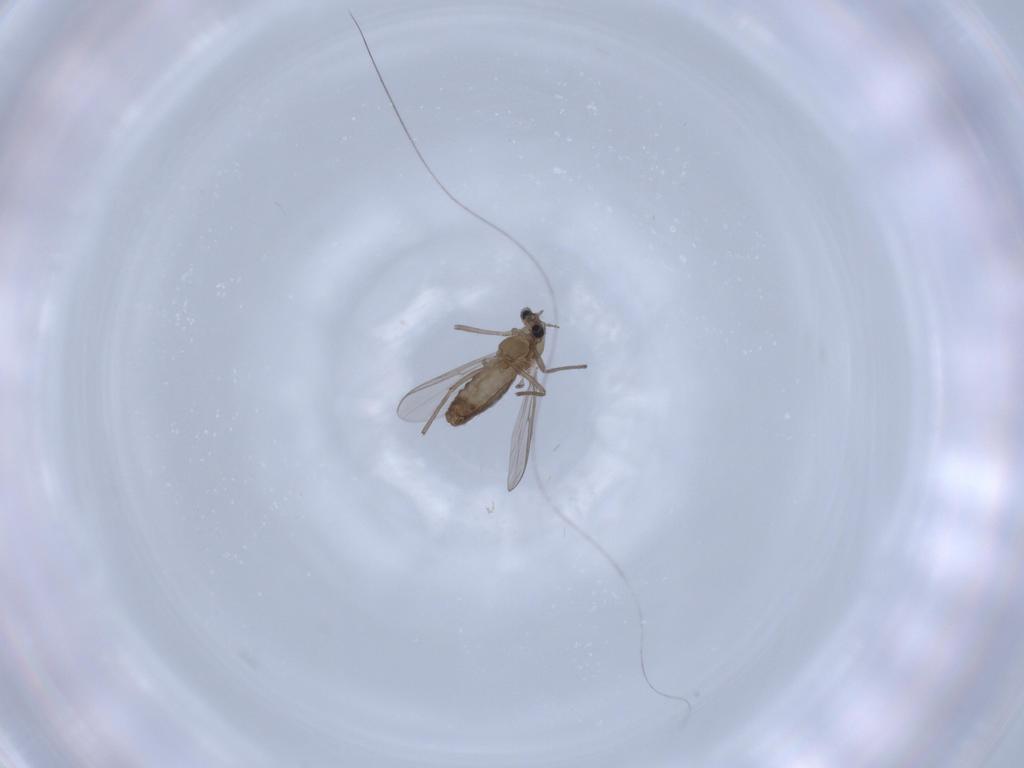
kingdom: Animalia
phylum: Arthropoda
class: Insecta
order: Diptera
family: Chironomidae
